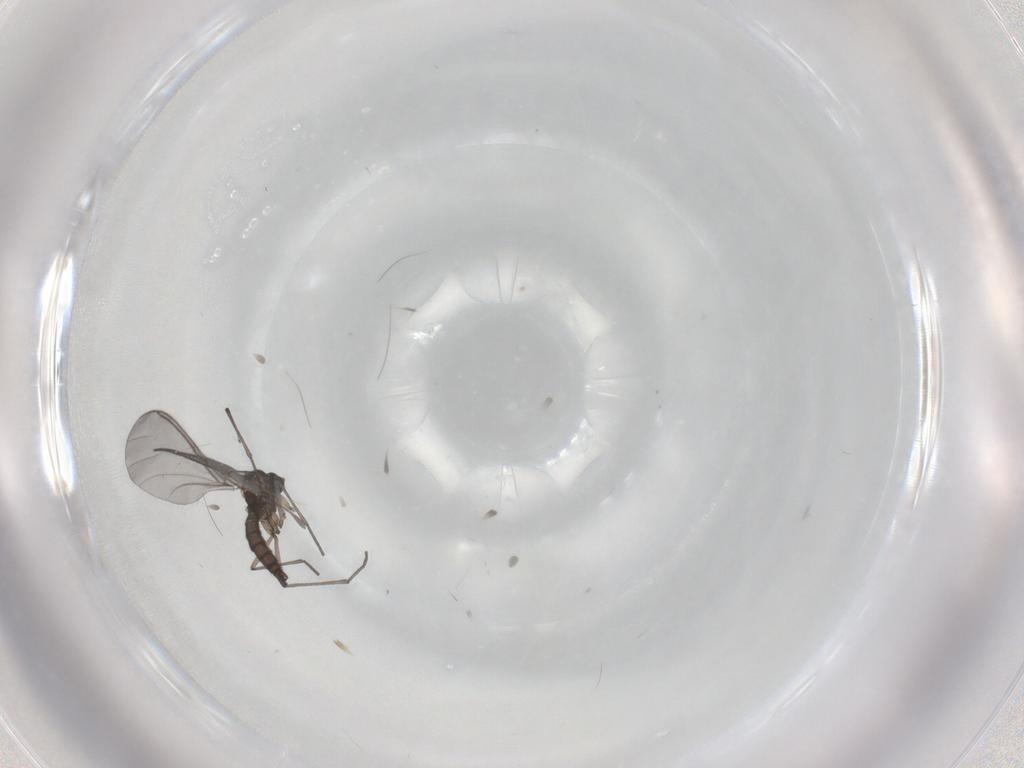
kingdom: Animalia
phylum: Arthropoda
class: Insecta
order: Diptera
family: Sciaridae
